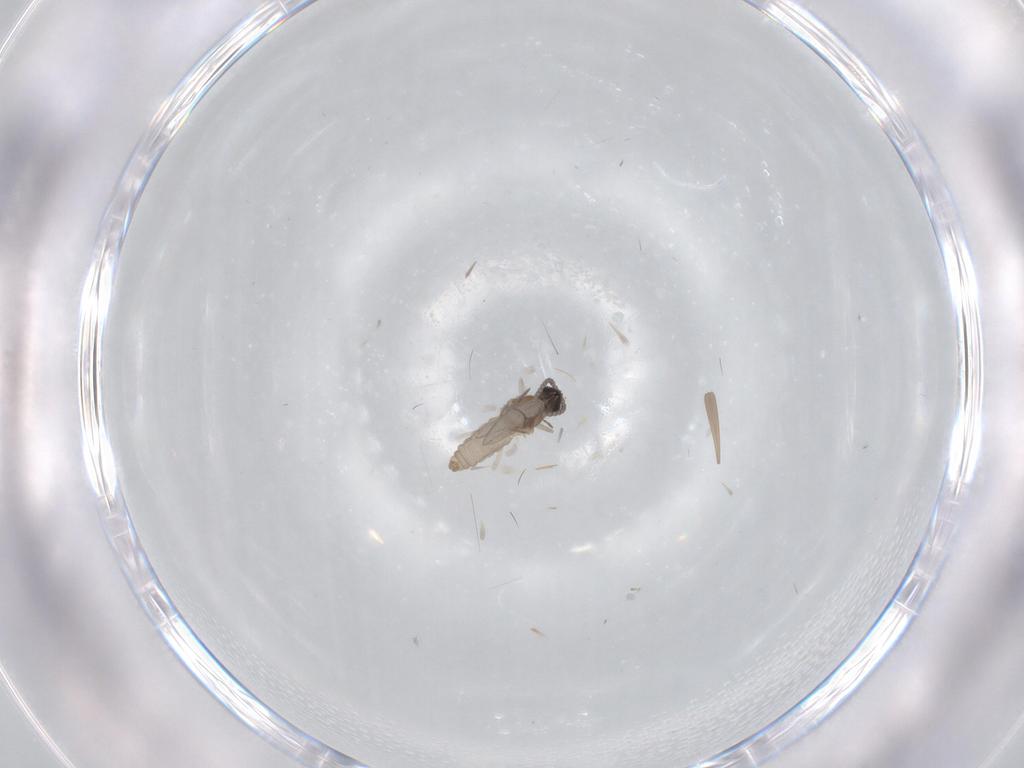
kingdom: Animalia
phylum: Arthropoda
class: Insecta
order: Diptera
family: Cecidomyiidae
